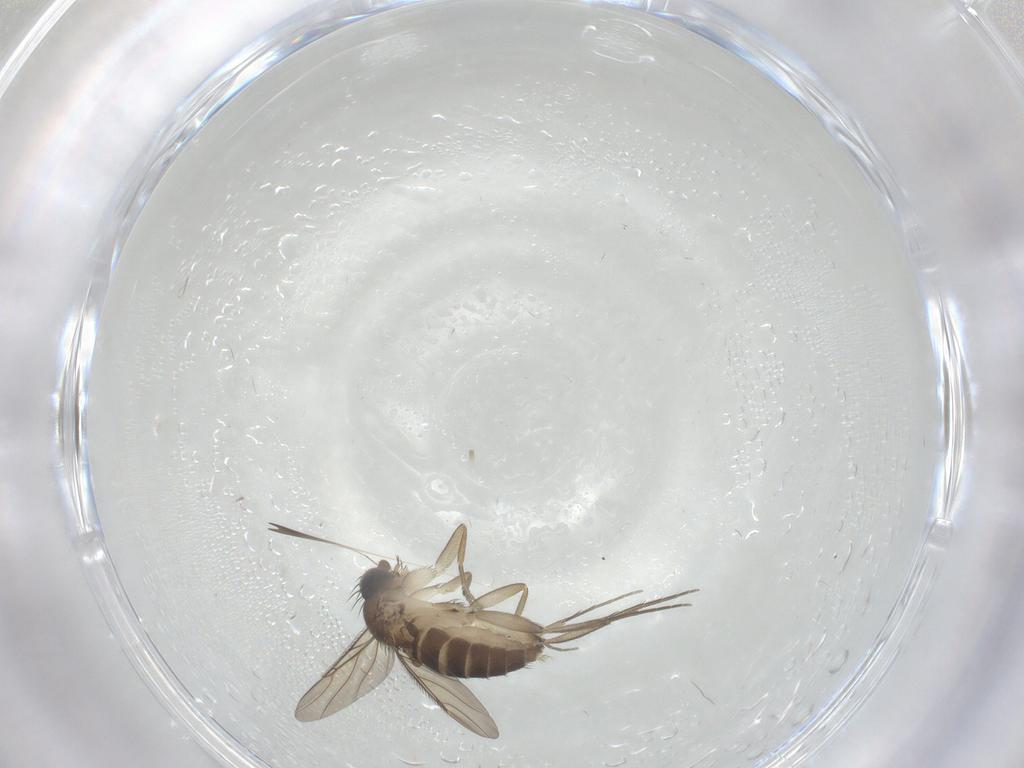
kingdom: Animalia
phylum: Arthropoda
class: Insecta
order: Diptera
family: Phoridae
